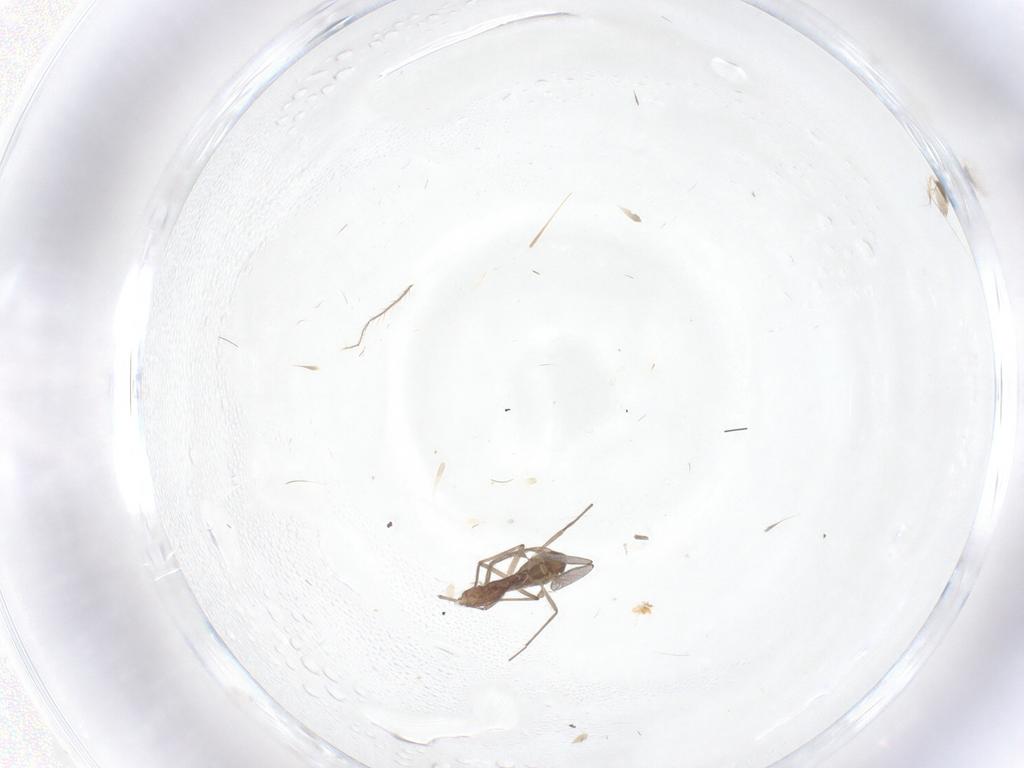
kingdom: Animalia
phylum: Arthropoda
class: Insecta
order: Diptera
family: Chironomidae
